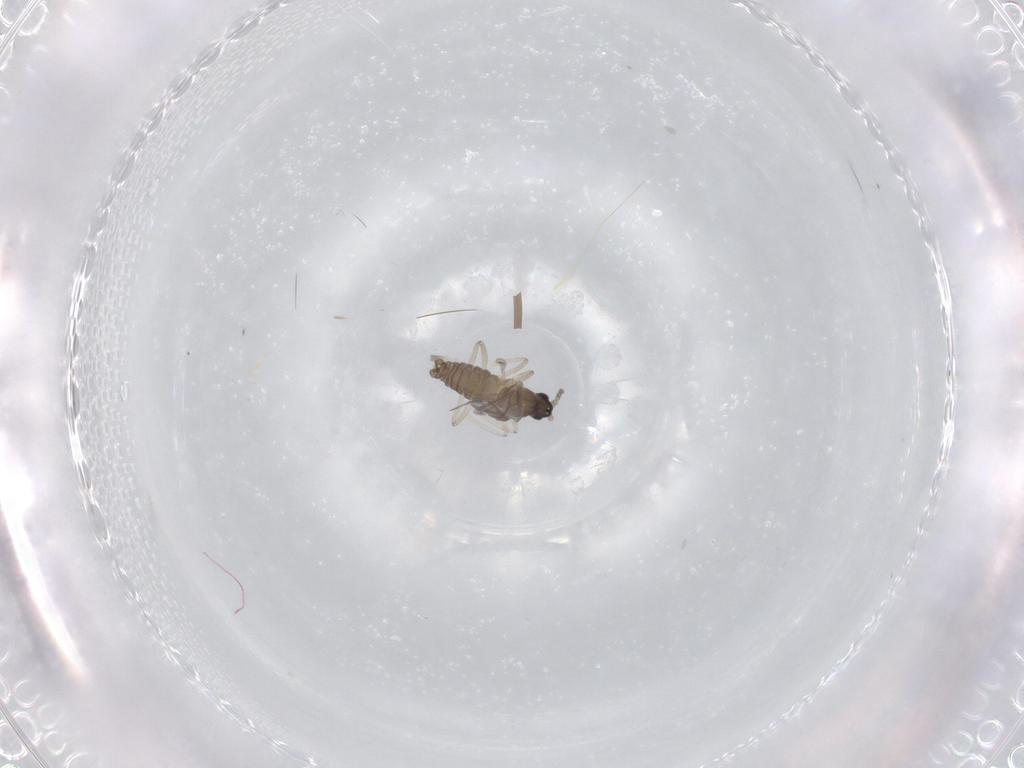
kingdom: Animalia
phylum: Arthropoda
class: Insecta
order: Diptera
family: Cecidomyiidae
